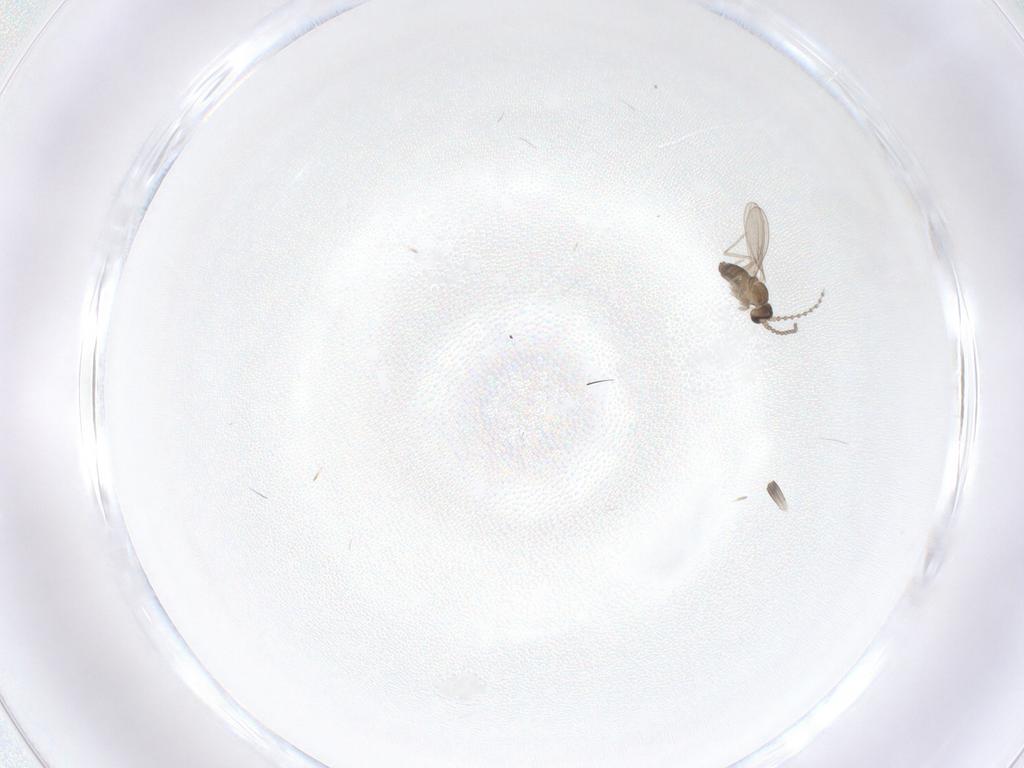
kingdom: Animalia
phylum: Arthropoda
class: Insecta
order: Diptera
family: Cecidomyiidae
